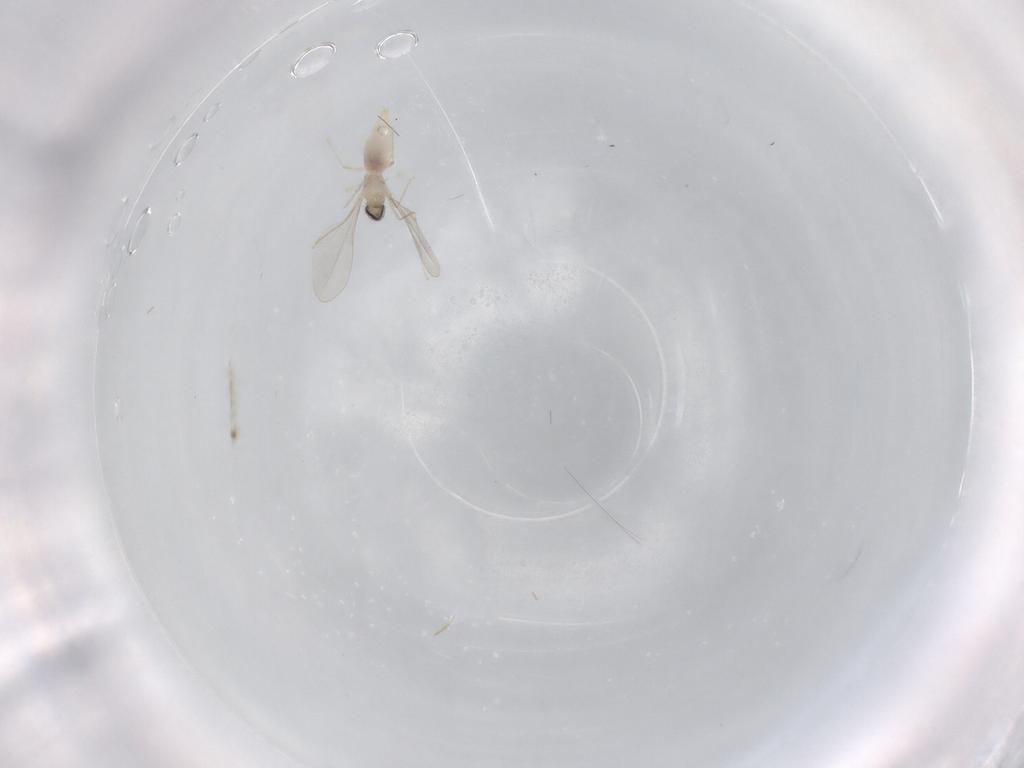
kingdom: Animalia
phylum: Arthropoda
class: Insecta
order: Diptera
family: Cecidomyiidae
